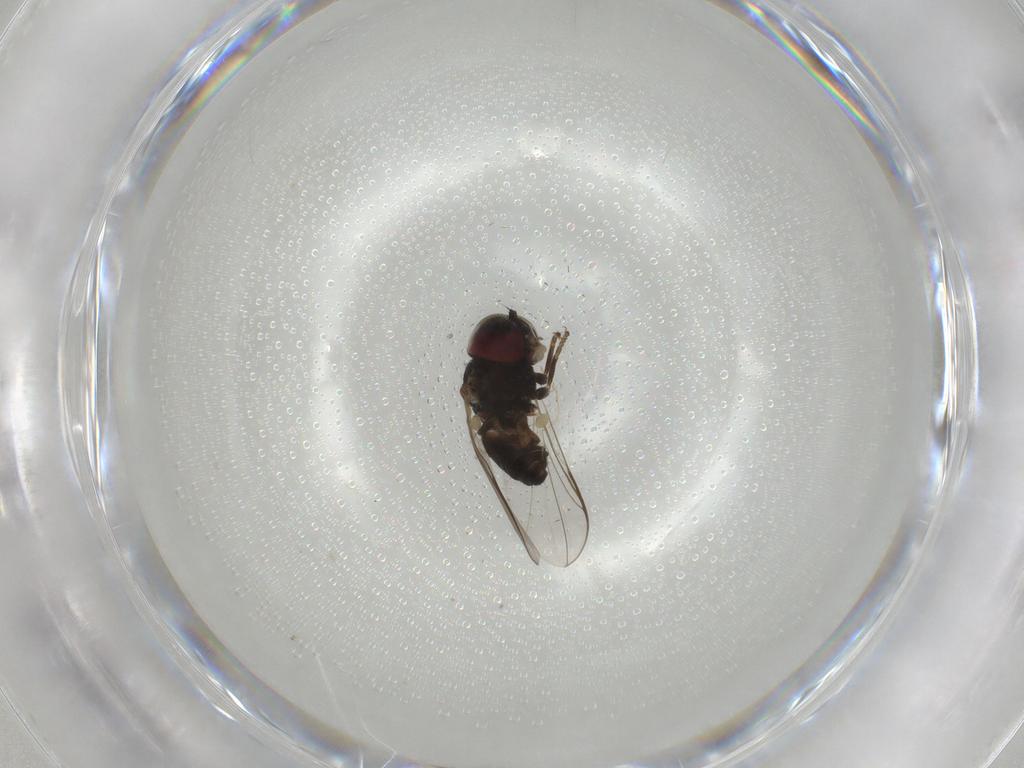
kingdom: Animalia
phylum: Arthropoda
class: Insecta
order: Diptera
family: Pipunculidae
